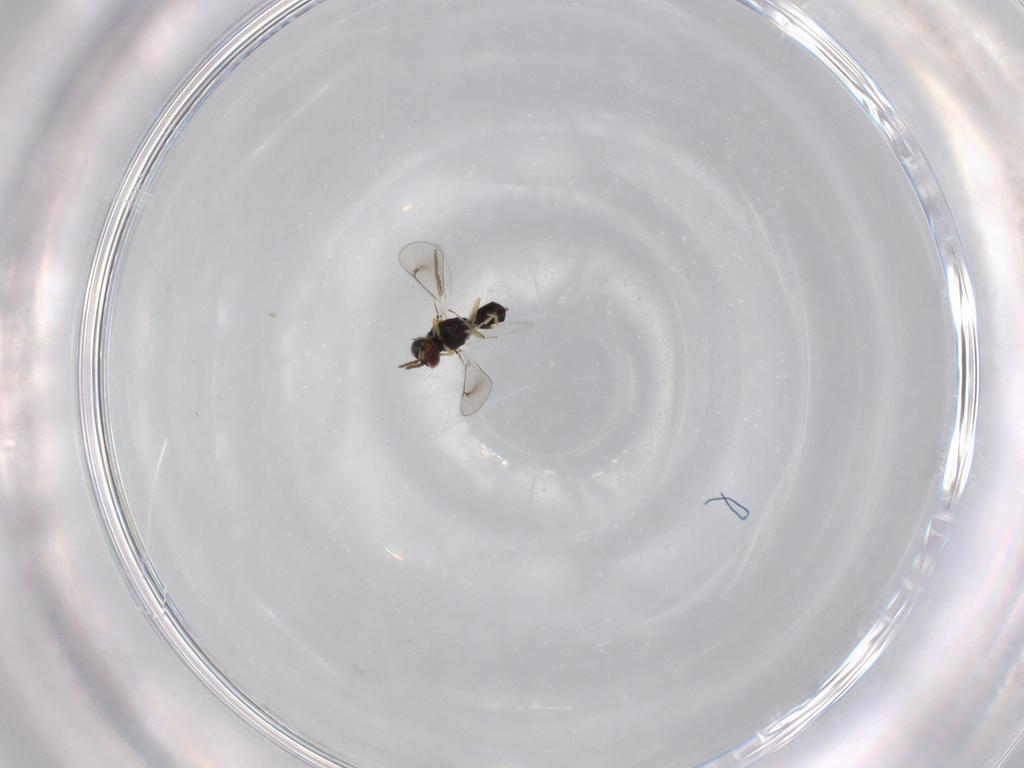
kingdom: Animalia
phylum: Arthropoda
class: Insecta
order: Hymenoptera
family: Eulophidae
